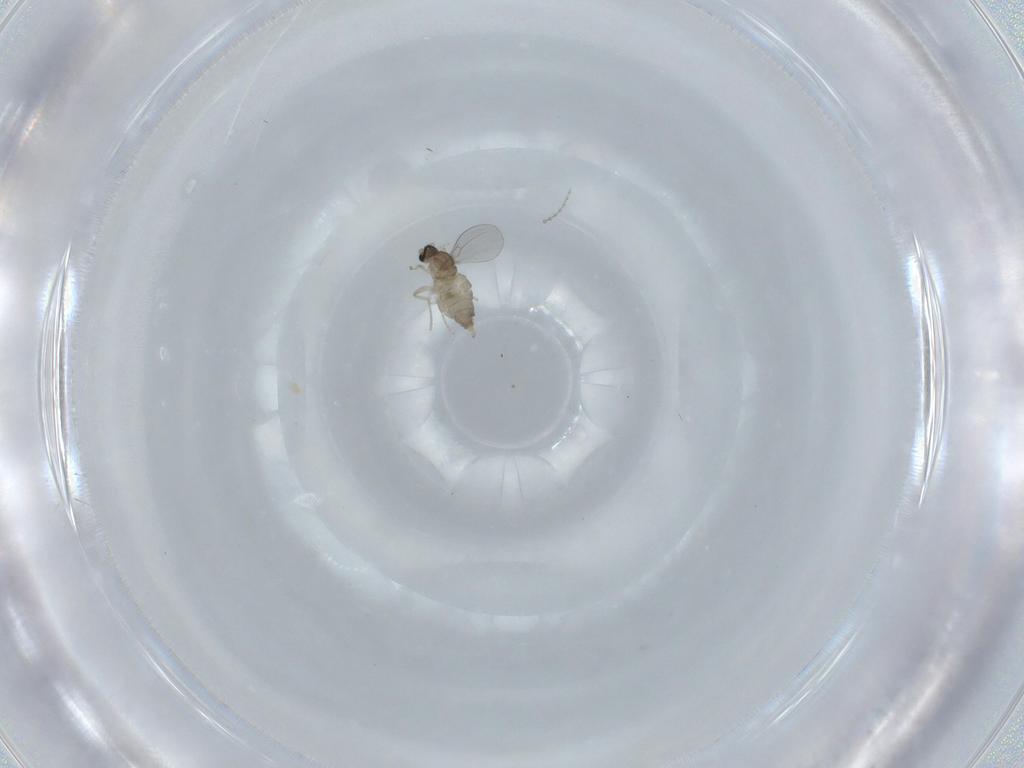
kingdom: Animalia
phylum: Arthropoda
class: Insecta
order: Diptera
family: Cecidomyiidae
